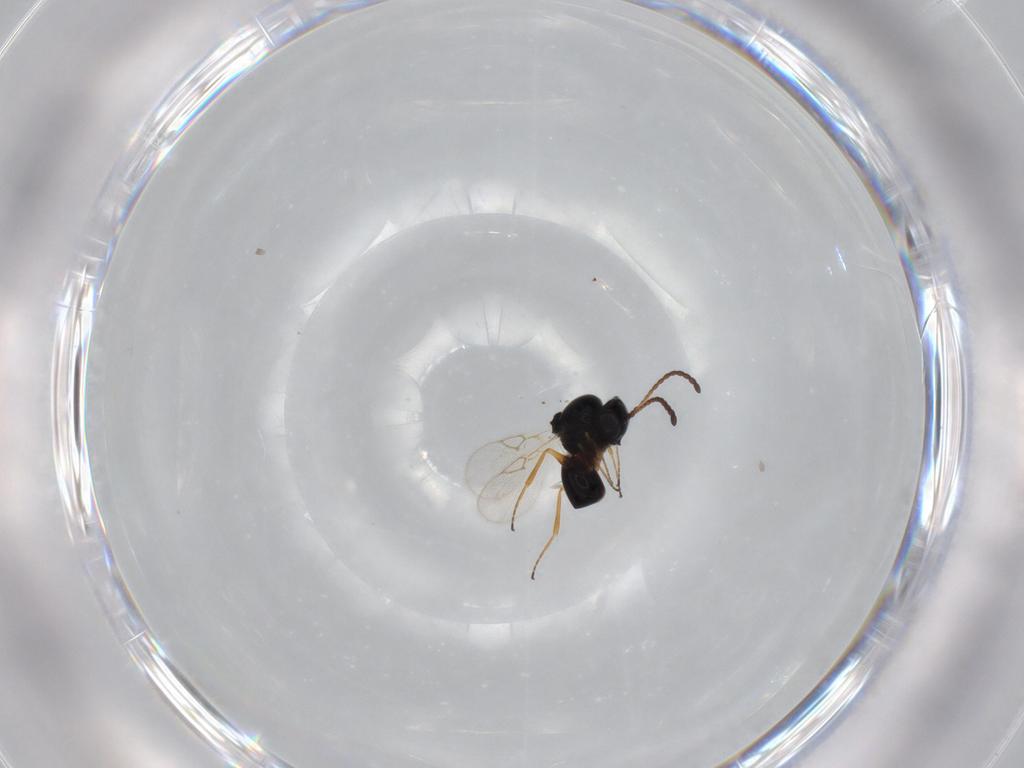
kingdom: Animalia
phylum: Arthropoda
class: Insecta
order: Hymenoptera
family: Figitidae
